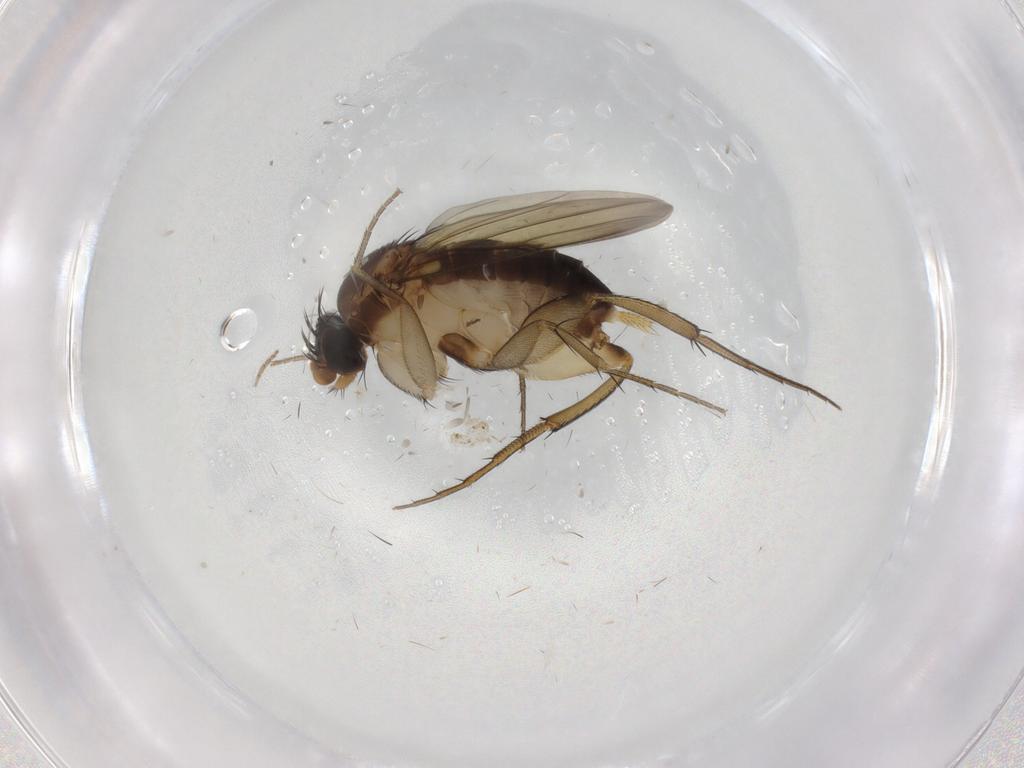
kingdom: Animalia
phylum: Arthropoda
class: Insecta
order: Diptera
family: Phoridae
